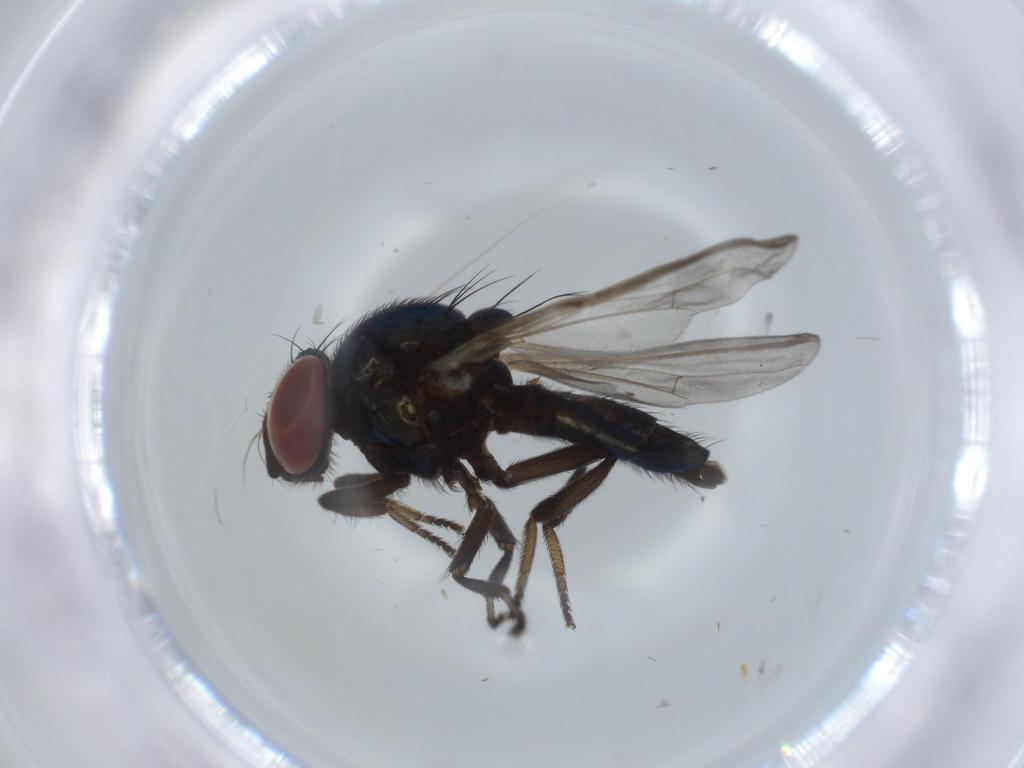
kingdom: Animalia
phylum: Arthropoda
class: Insecta
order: Diptera
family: Lonchaeidae
